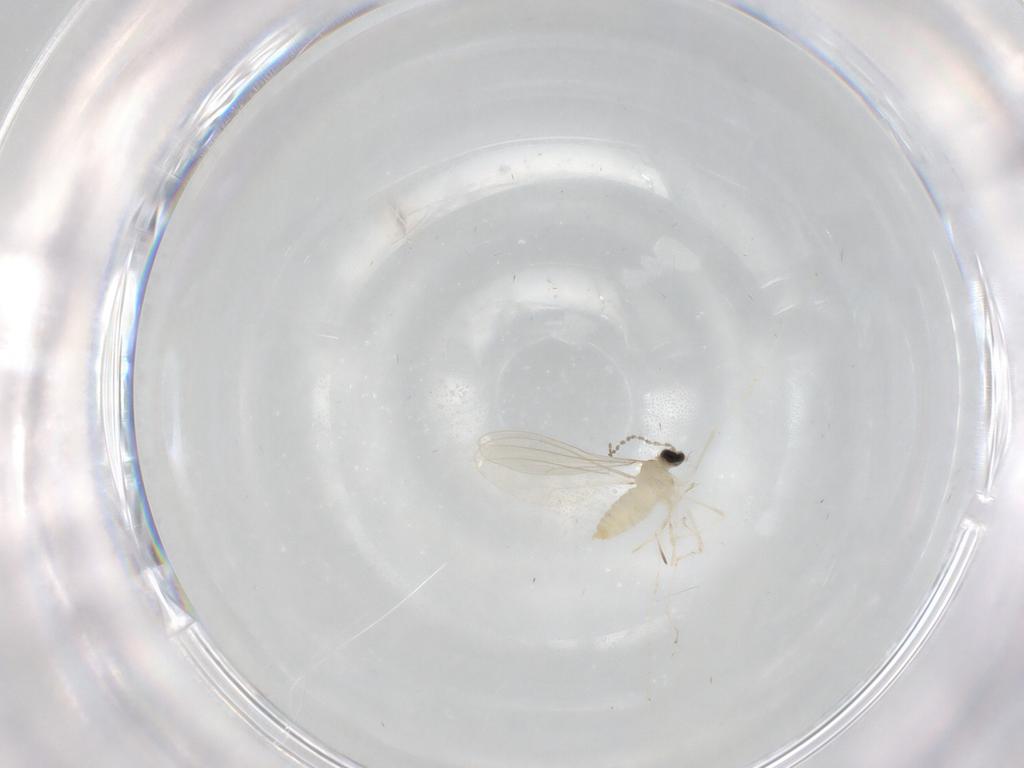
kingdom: Animalia
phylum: Arthropoda
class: Insecta
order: Diptera
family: Cecidomyiidae
